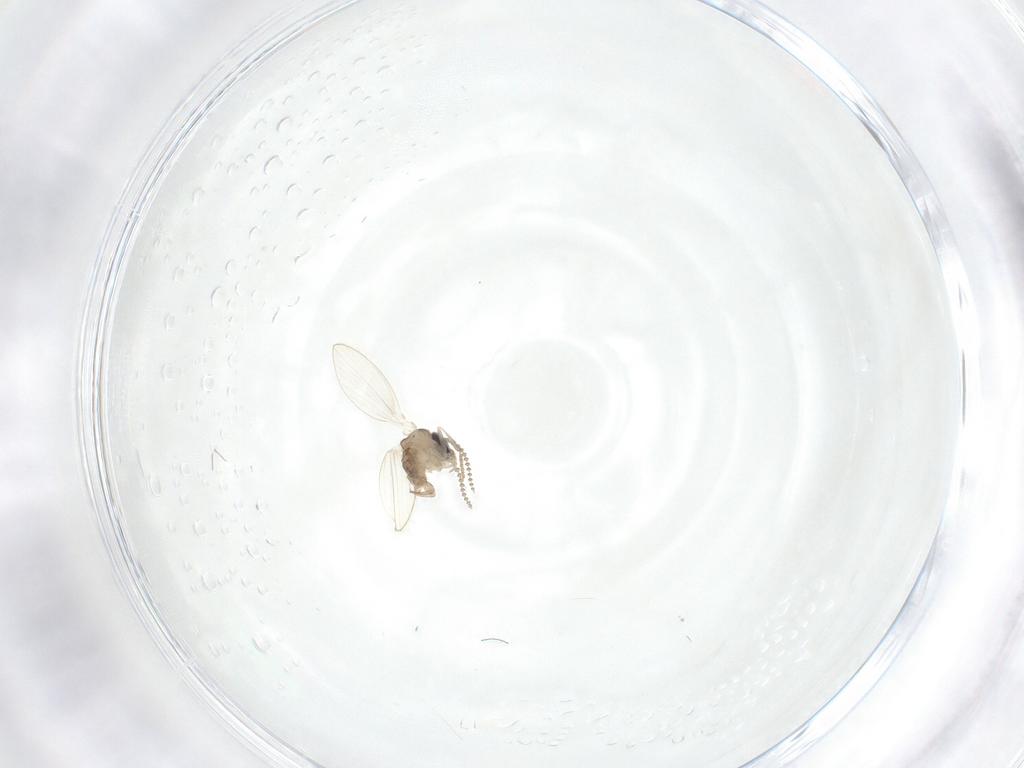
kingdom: Animalia
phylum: Arthropoda
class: Insecta
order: Diptera
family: Psychodidae
